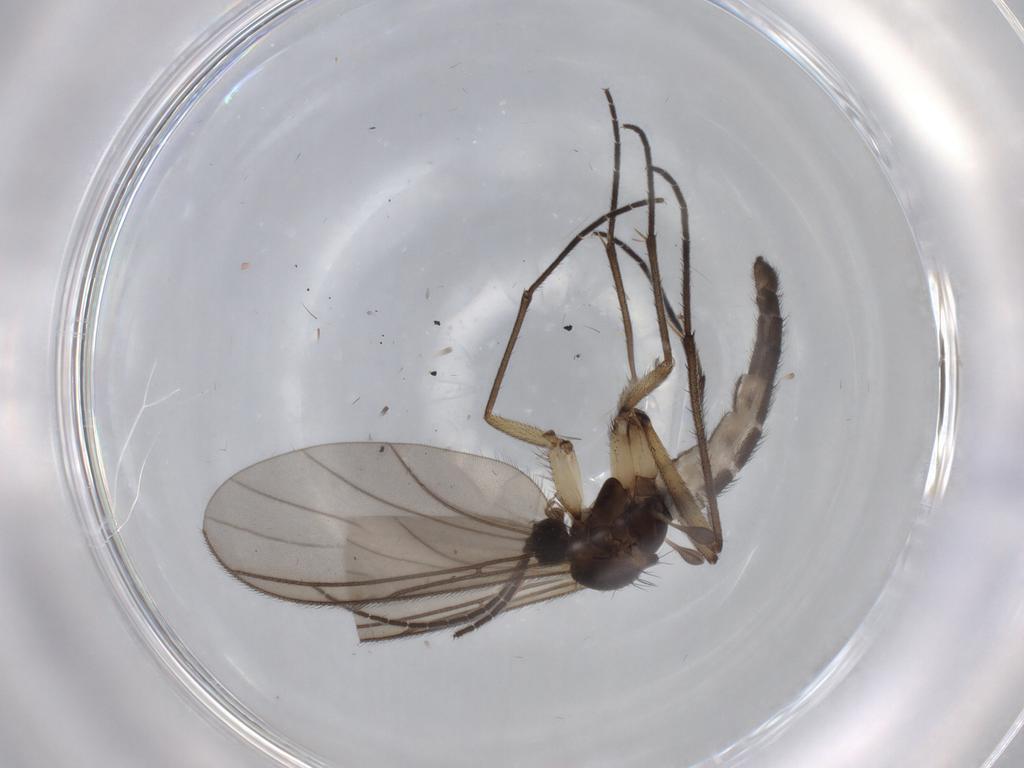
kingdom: Animalia
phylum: Arthropoda
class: Insecta
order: Diptera
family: Sciaridae
